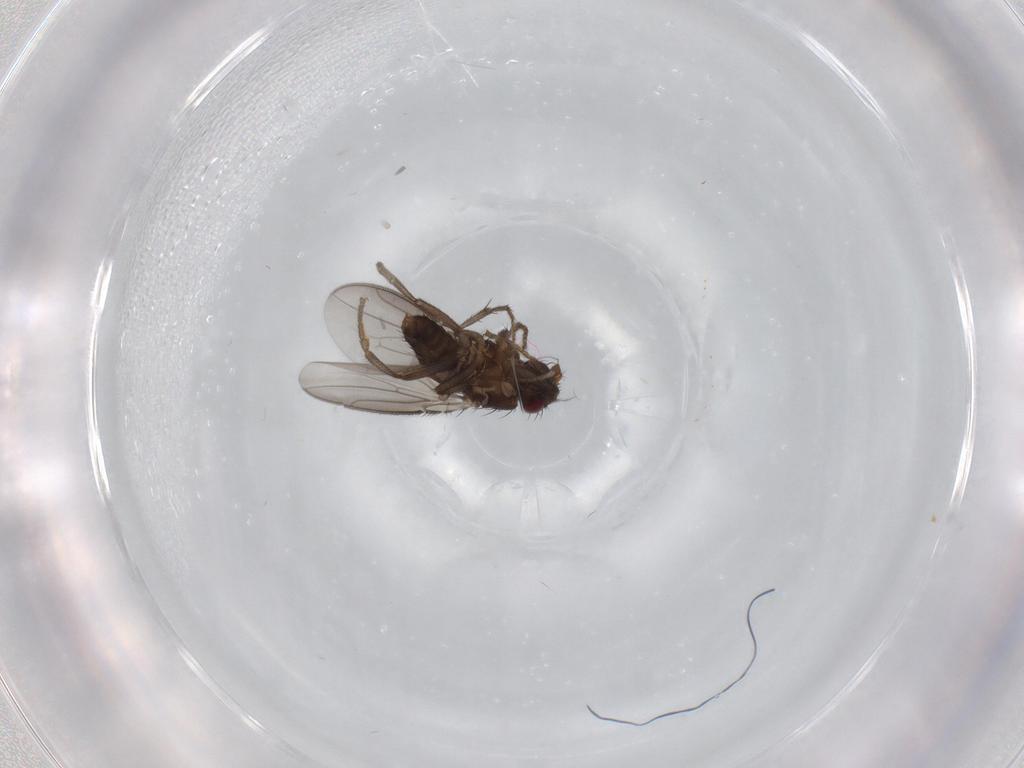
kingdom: Animalia
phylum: Arthropoda
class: Insecta
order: Diptera
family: Sphaeroceridae
